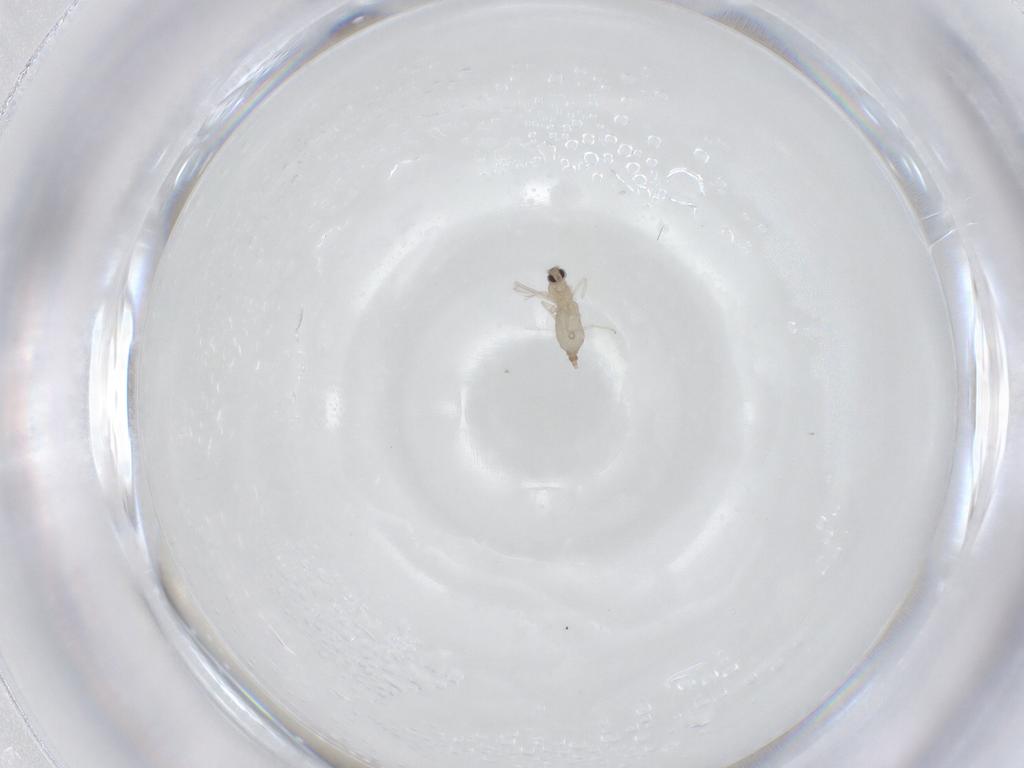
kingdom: Animalia
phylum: Arthropoda
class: Insecta
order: Diptera
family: Cecidomyiidae
